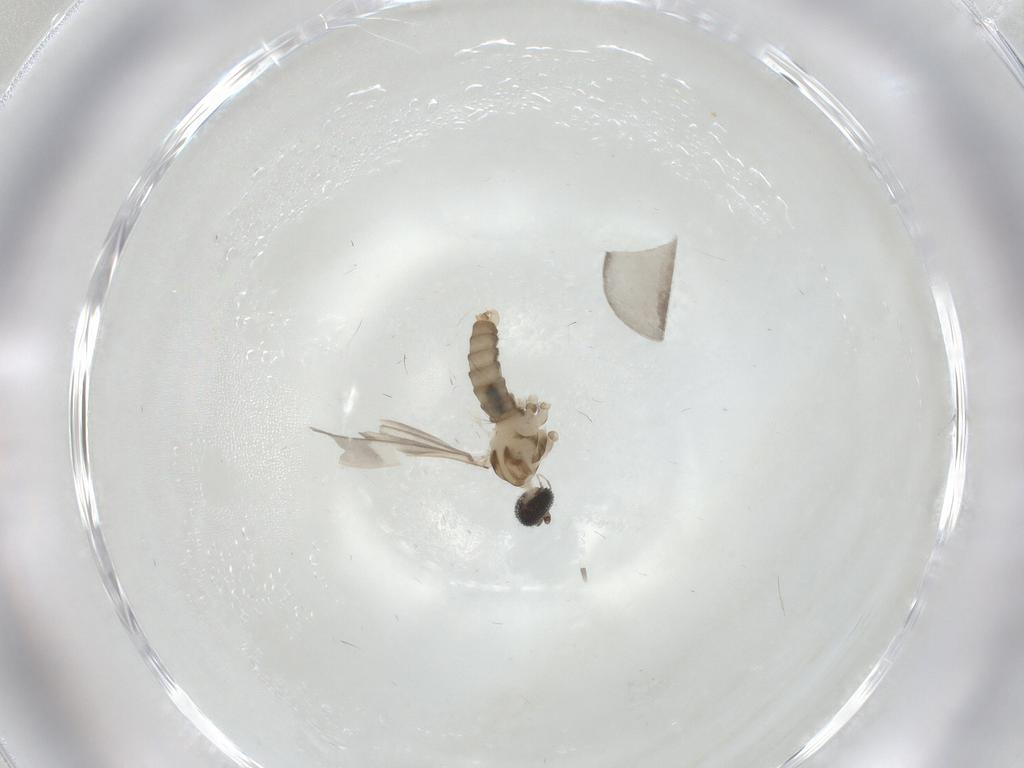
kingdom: Animalia
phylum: Arthropoda
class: Insecta
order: Diptera
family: Cecidomyiidae
